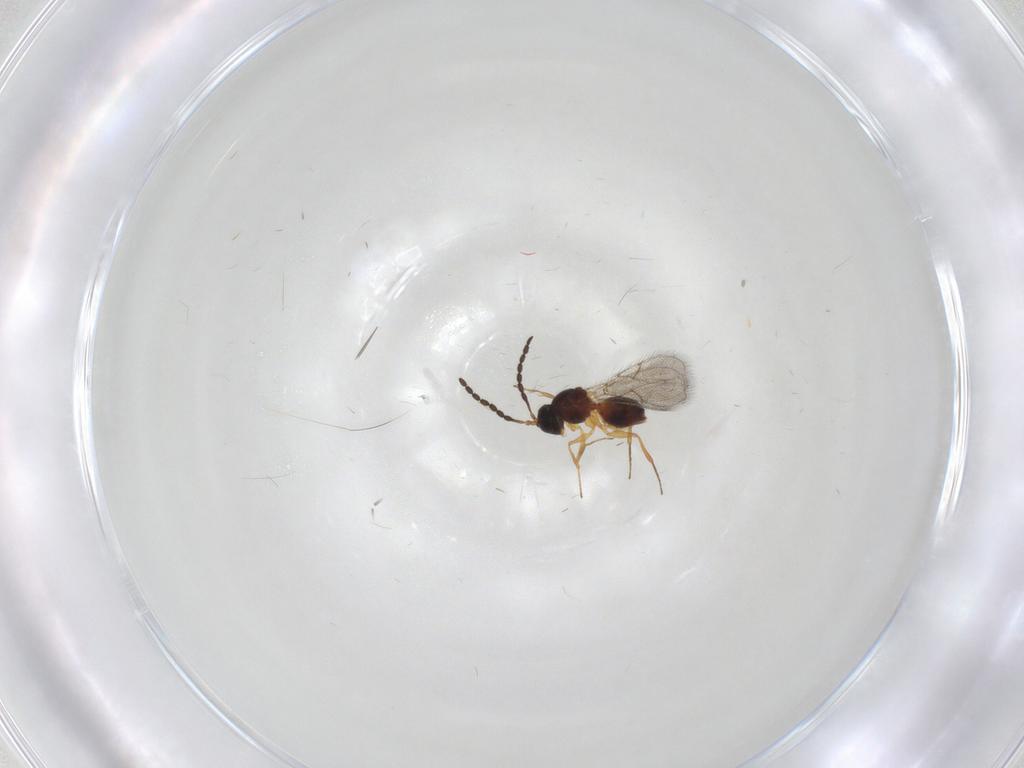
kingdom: Animalia
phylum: Arthropoda
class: Insecta
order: Hymenoptera
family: Figitidae
